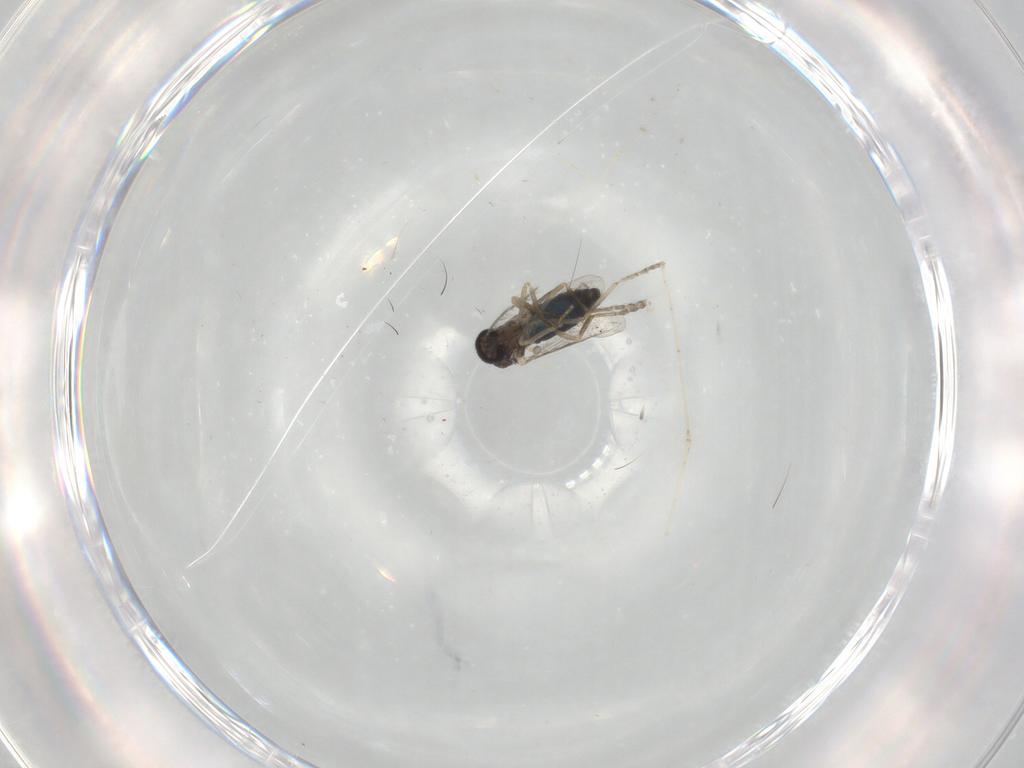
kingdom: Animalia
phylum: Arthropoda
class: Insecta
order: Diptera
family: Ceratopogonidae
